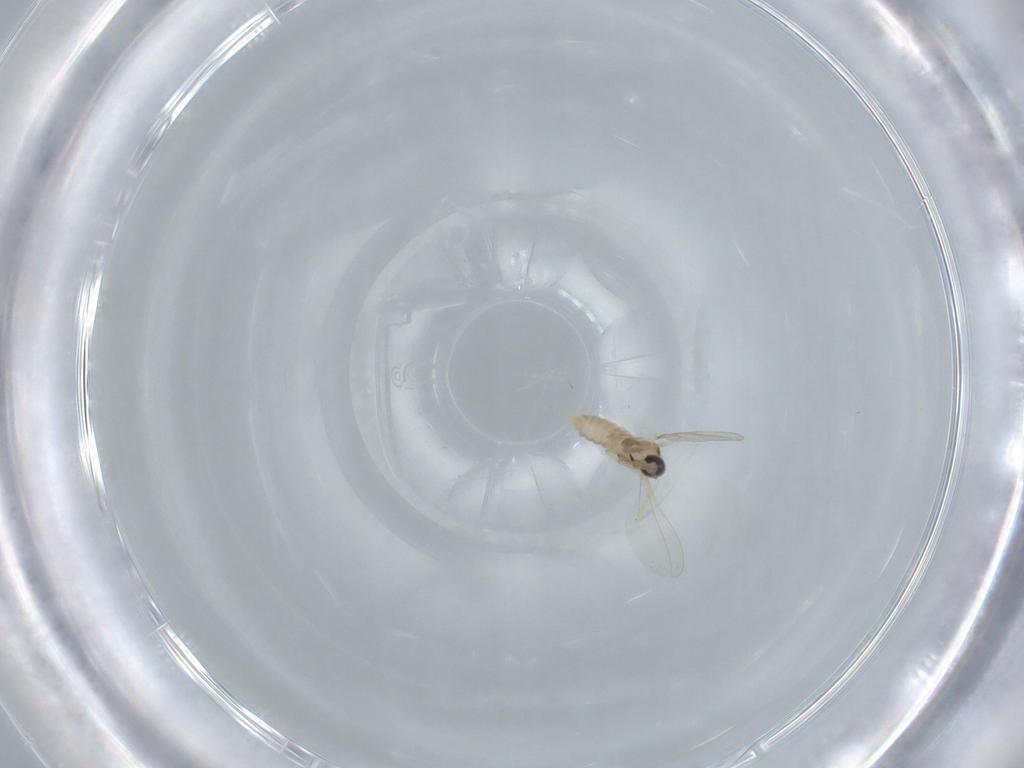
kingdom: Animalia
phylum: Arthropoda
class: Insecta
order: Diptera
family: Cecidomyiidae
